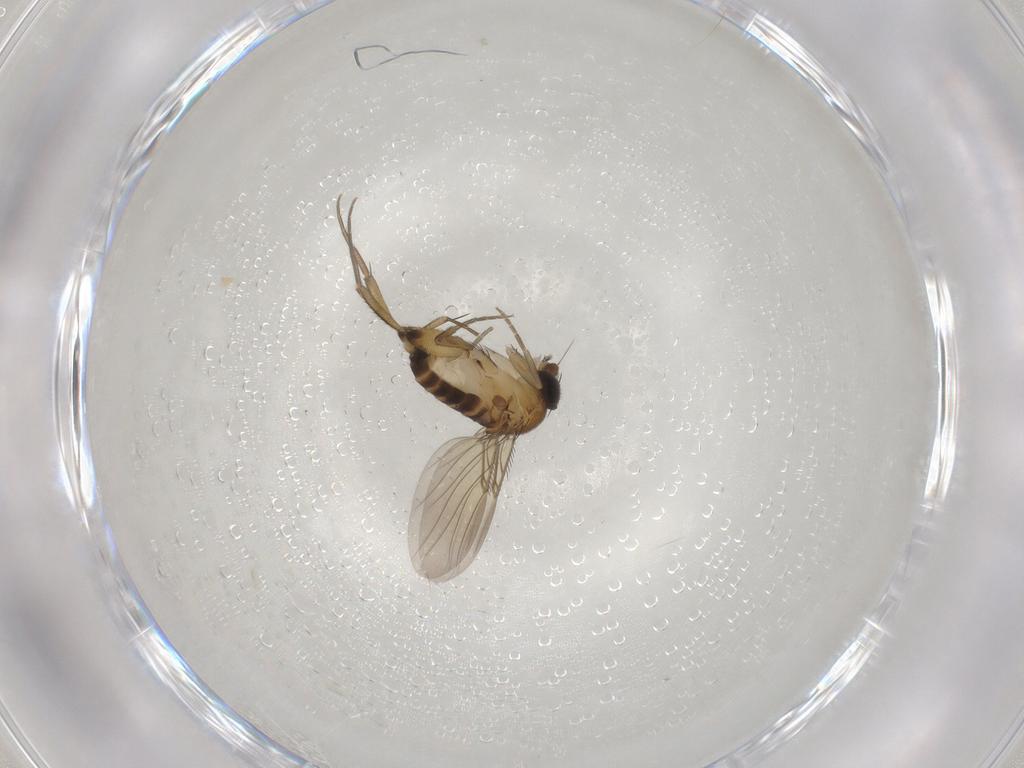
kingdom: Animalia
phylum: Arthropoda
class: Insecta
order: Diptera
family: Phoridae
